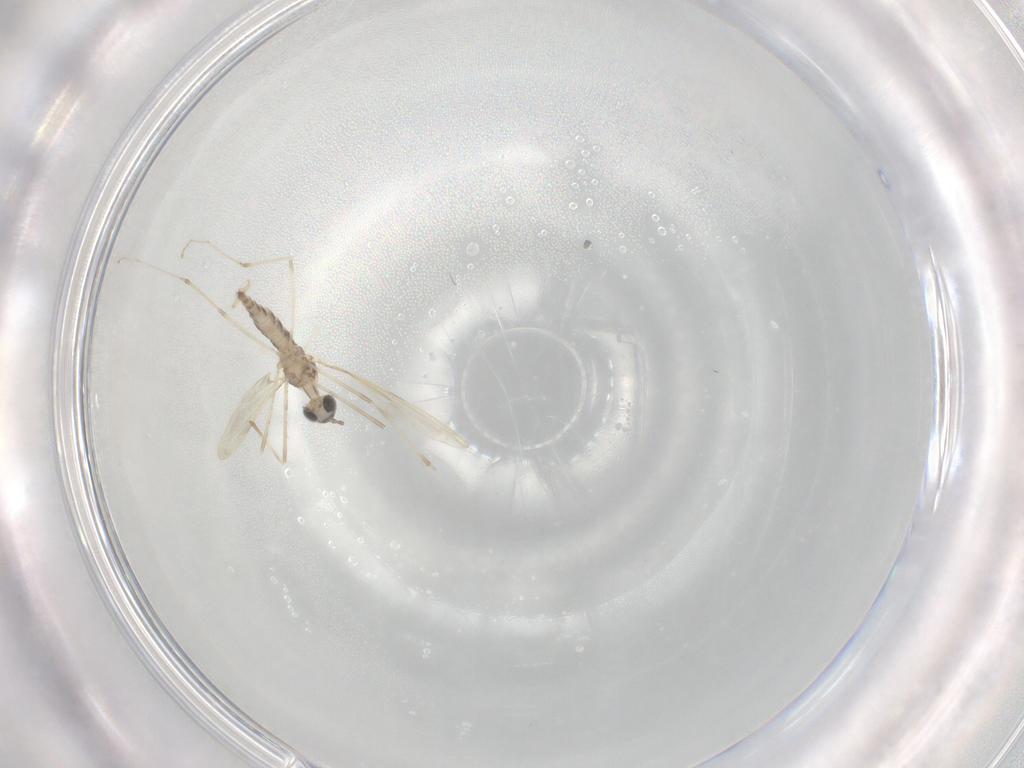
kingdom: Animalia
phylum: Arthropoda
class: Insecta
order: Diptera
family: Cecidomyiidae
